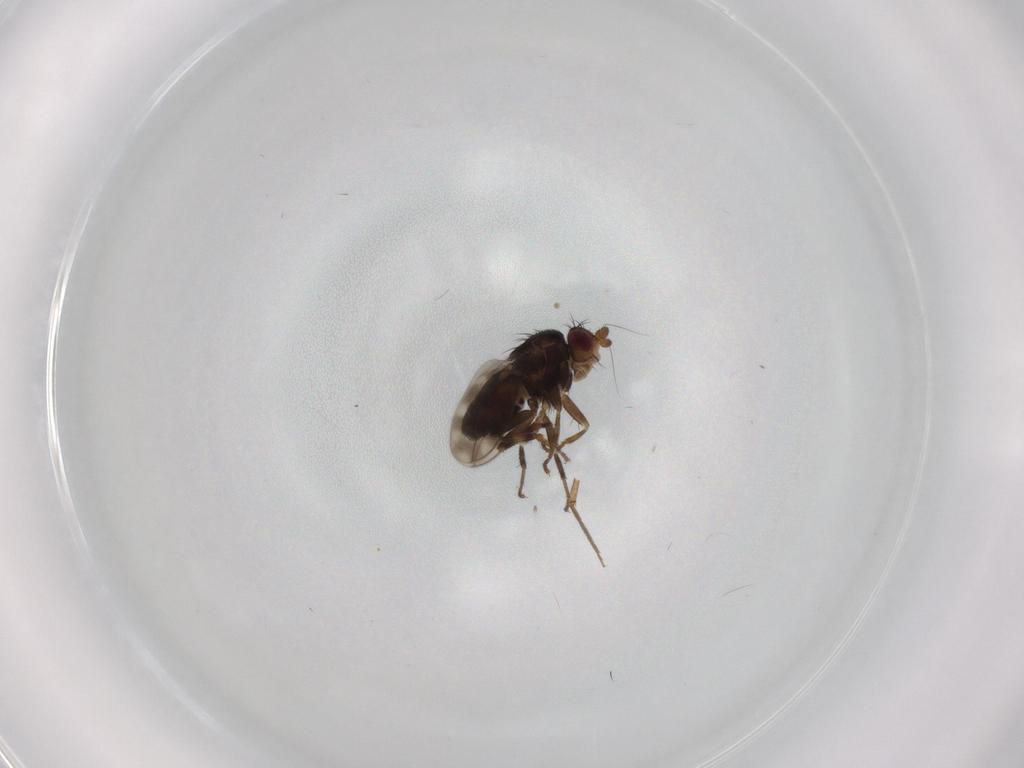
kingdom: Animalia
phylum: Arthropoda
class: Insecta
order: Diptera
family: Sphaeroceridae
